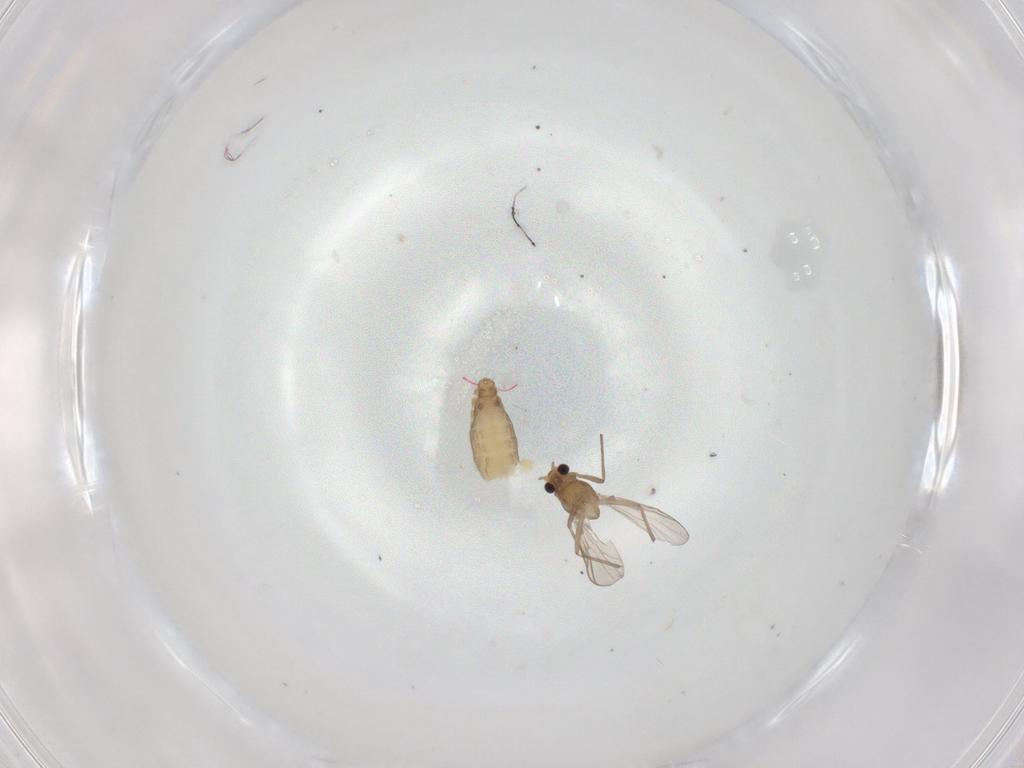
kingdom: Animalia
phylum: Arthropoda
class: Insecta
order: Diptera
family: Chironomidae
